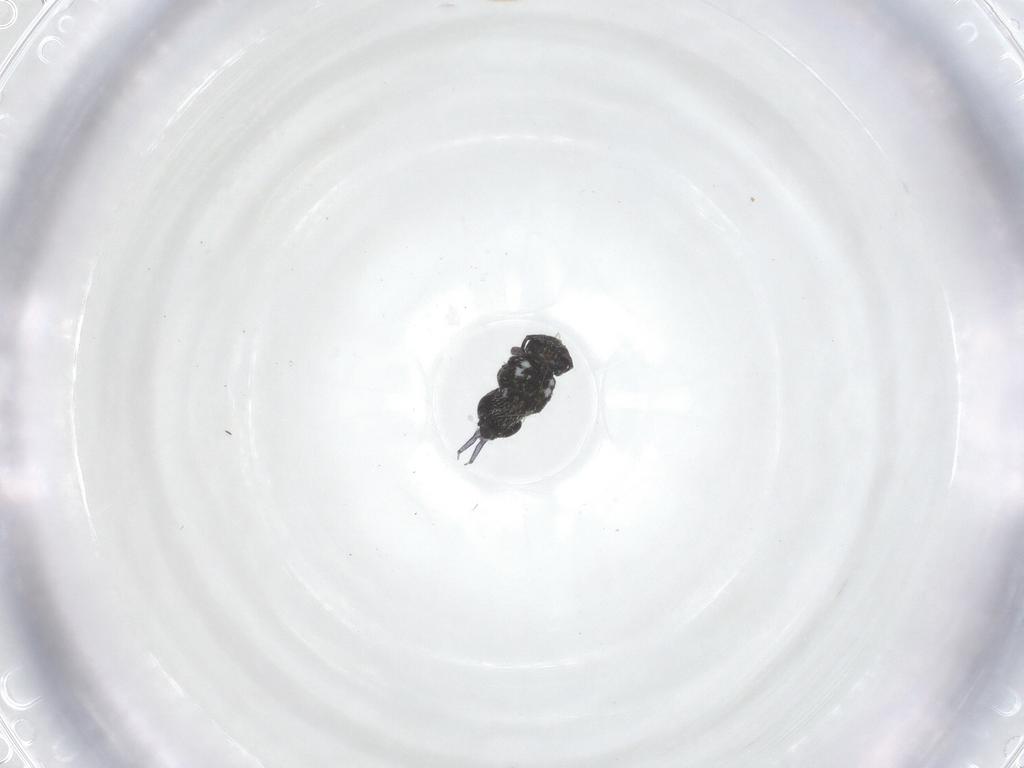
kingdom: Animalia
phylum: Arthropoda
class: Collembola
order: Symphypleona
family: Bourletiellidae
